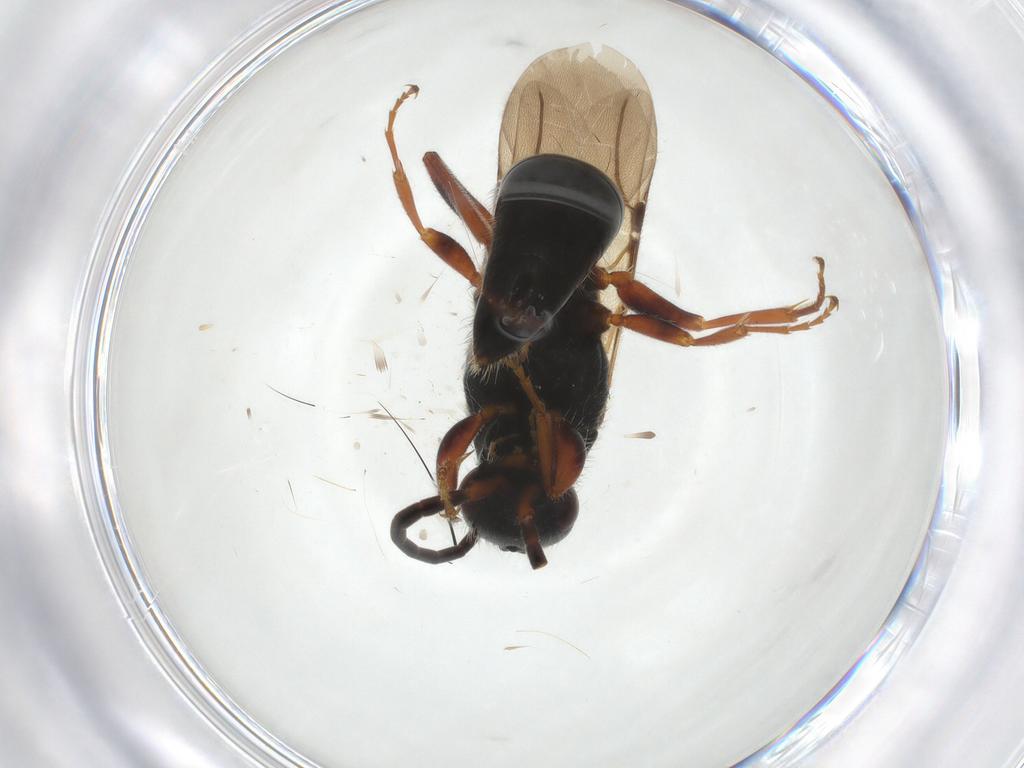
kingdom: Animalia
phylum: Arthropoda
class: Insecta
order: Hymenoptera
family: Bethylidae
